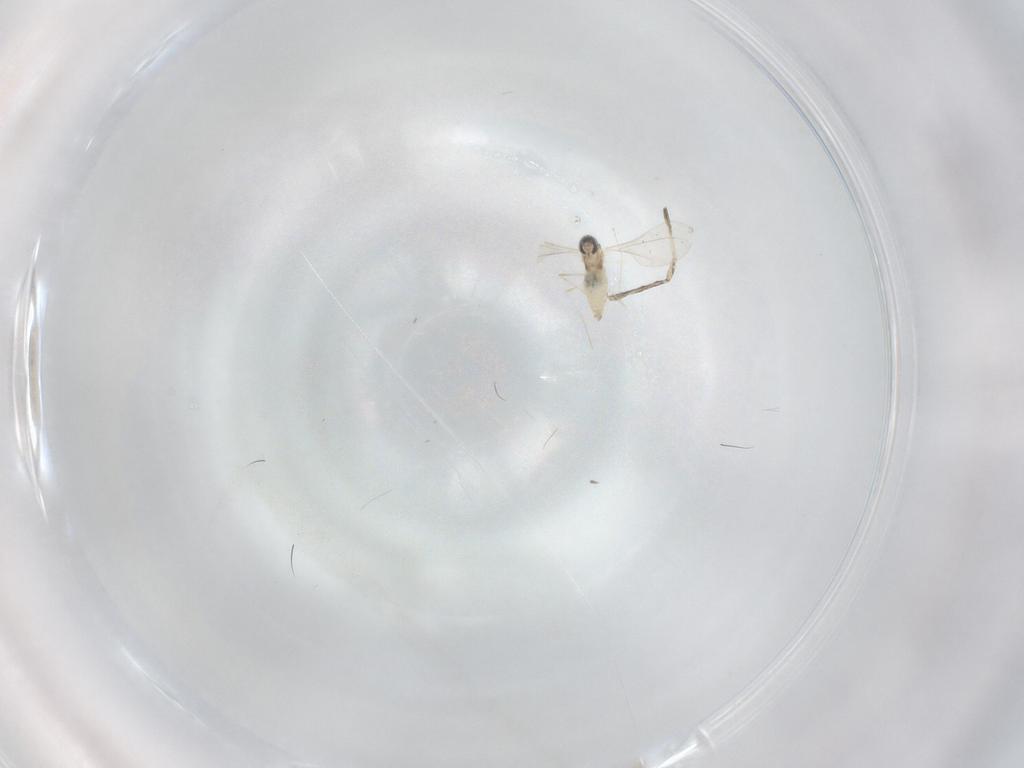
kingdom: Animalia
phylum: Arthropoda
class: Insecta
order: Diptera
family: Cecidomyiidae
